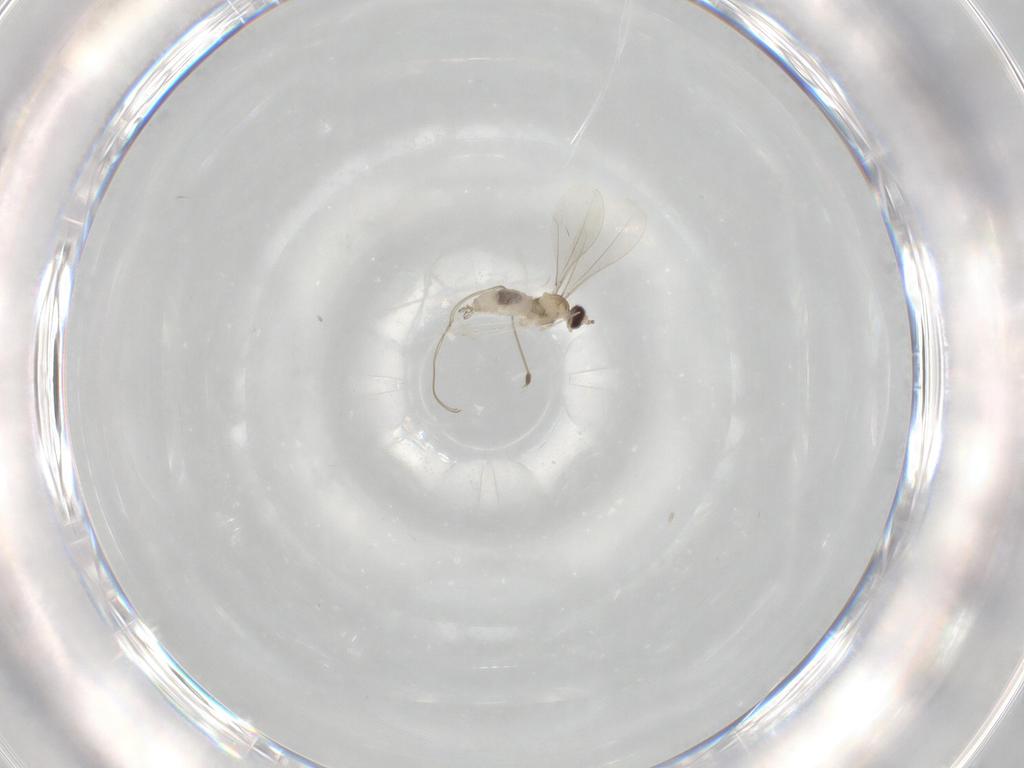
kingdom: Animalia
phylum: Arthropoda
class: Insecta
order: Diptera
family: Cecidomyiidae
